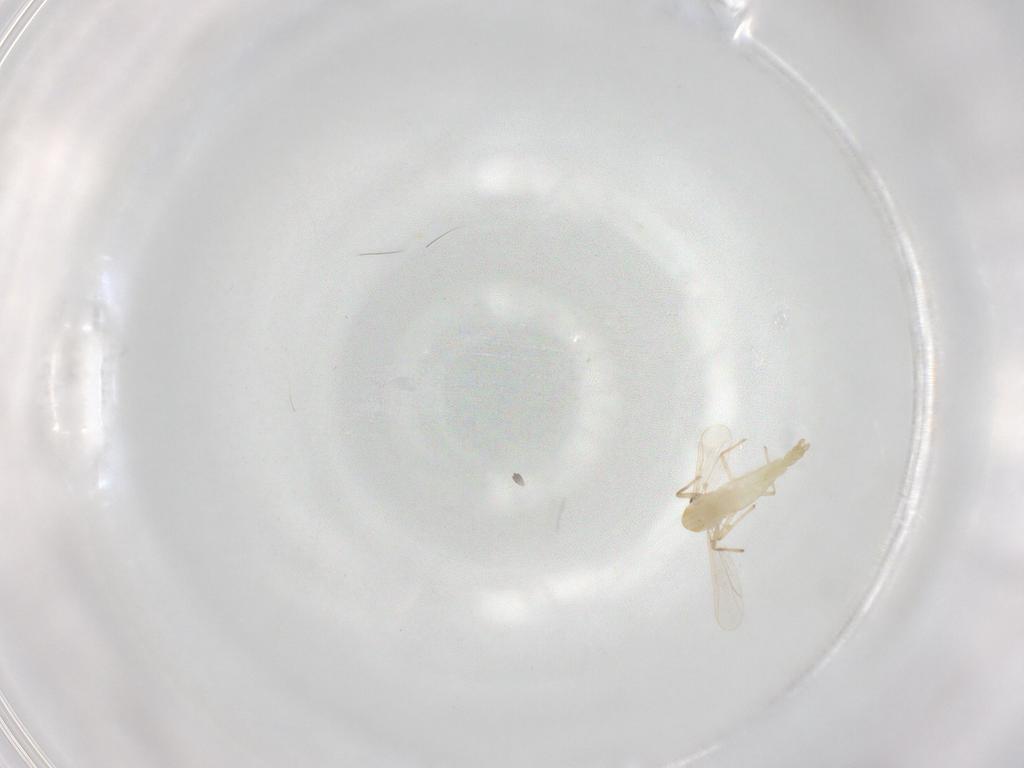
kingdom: Animalia
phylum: Arthropoda
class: Insecta
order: Diptera
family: Chironomidae
